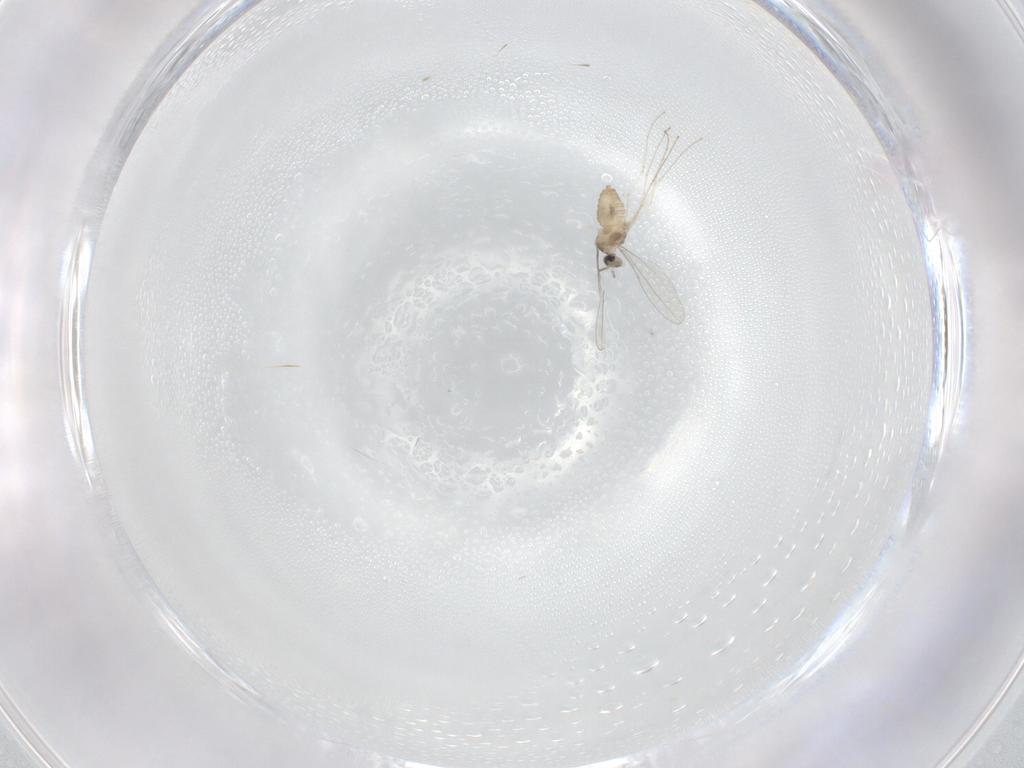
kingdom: Animalia
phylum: Arthropoda
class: Insecta
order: Diptera
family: Cecidomyiidae
